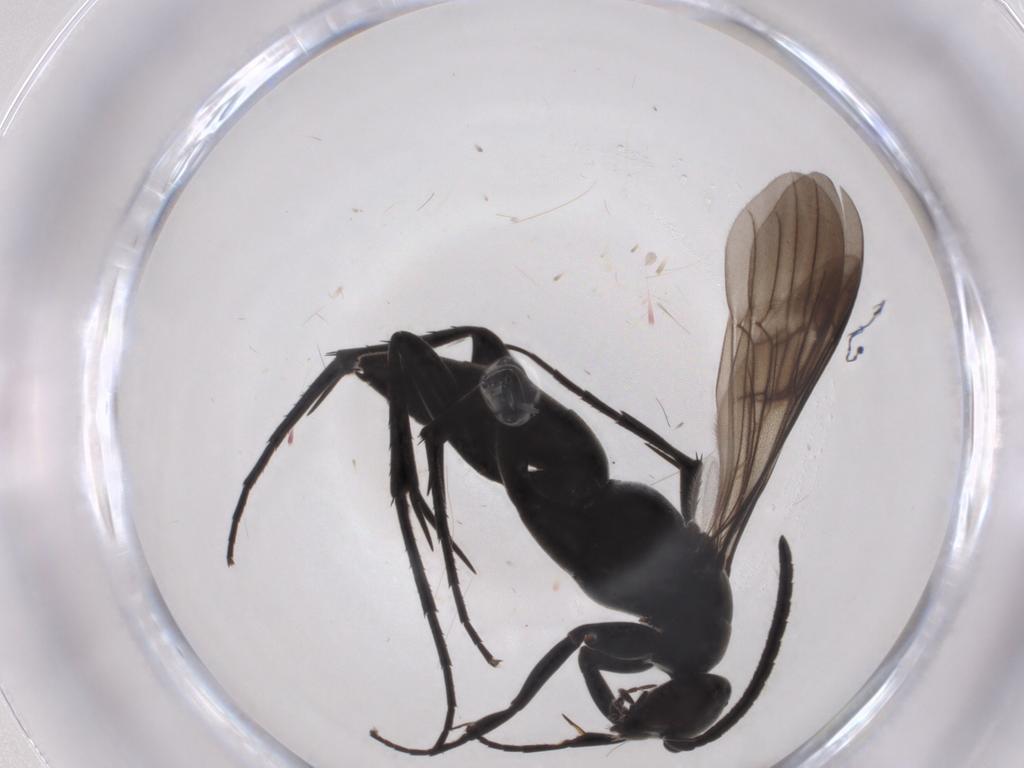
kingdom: Animalia
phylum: Arthropoda
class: Insecta
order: Hymenoptera
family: Pompilidae
